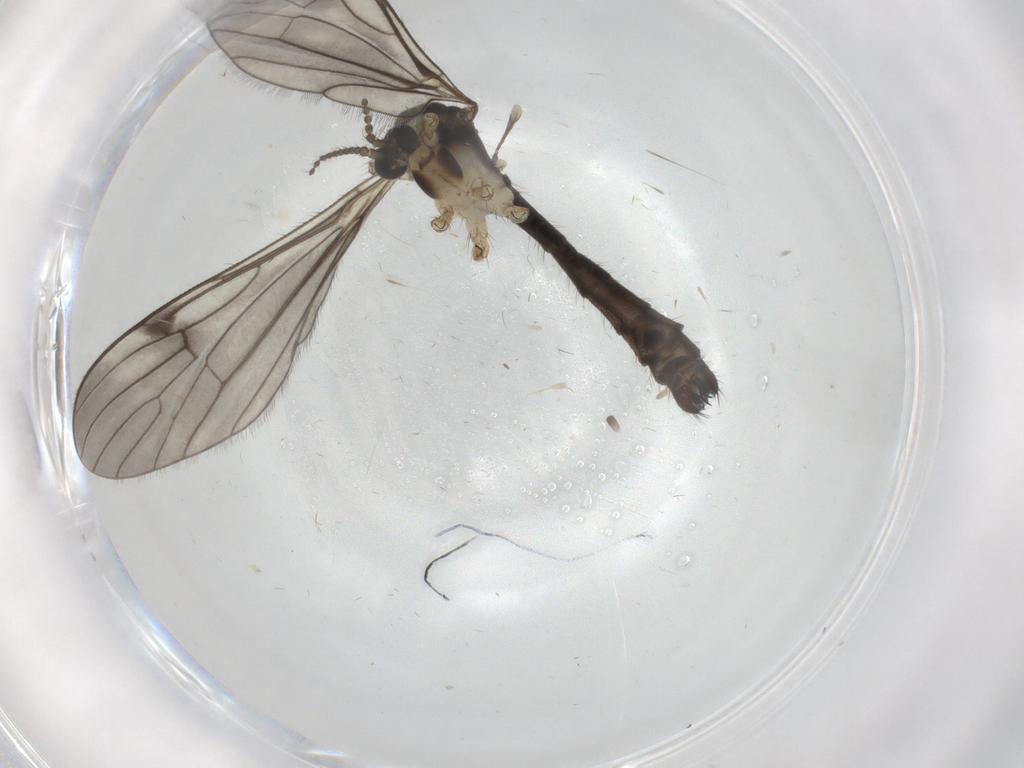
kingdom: Animalia
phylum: Arthropoda
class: Insecta
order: Diptera
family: Limoniidae
